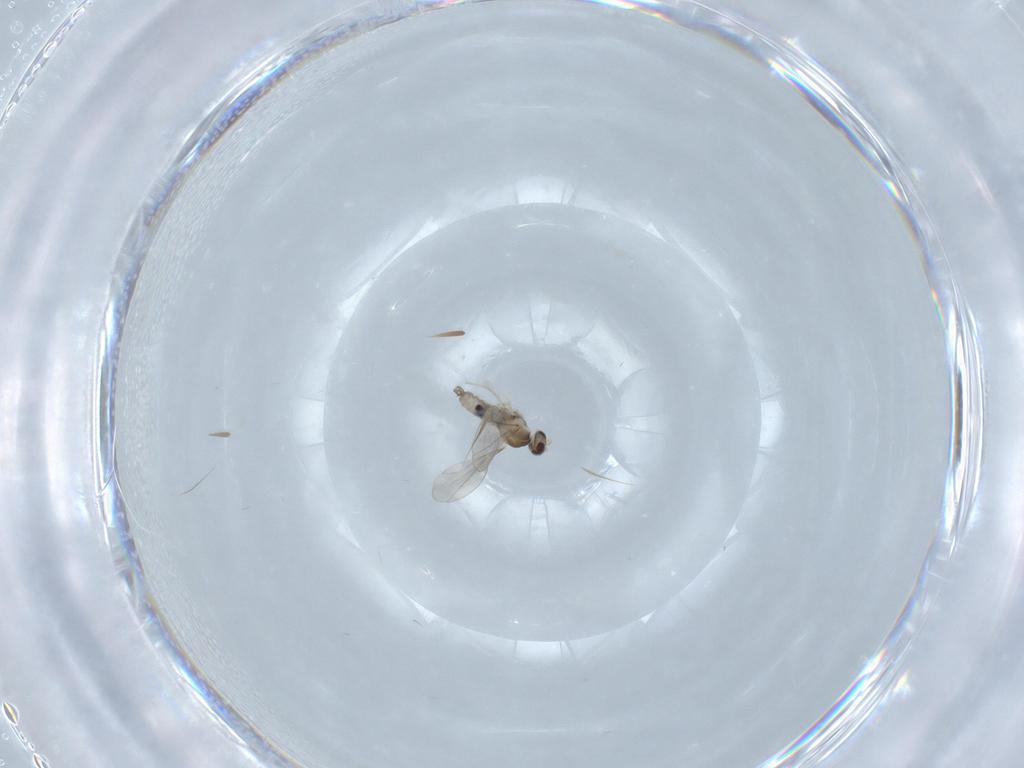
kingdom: Animalia
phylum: Arthropoda
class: Insecta
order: Diptera
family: Cecidomyiidae
